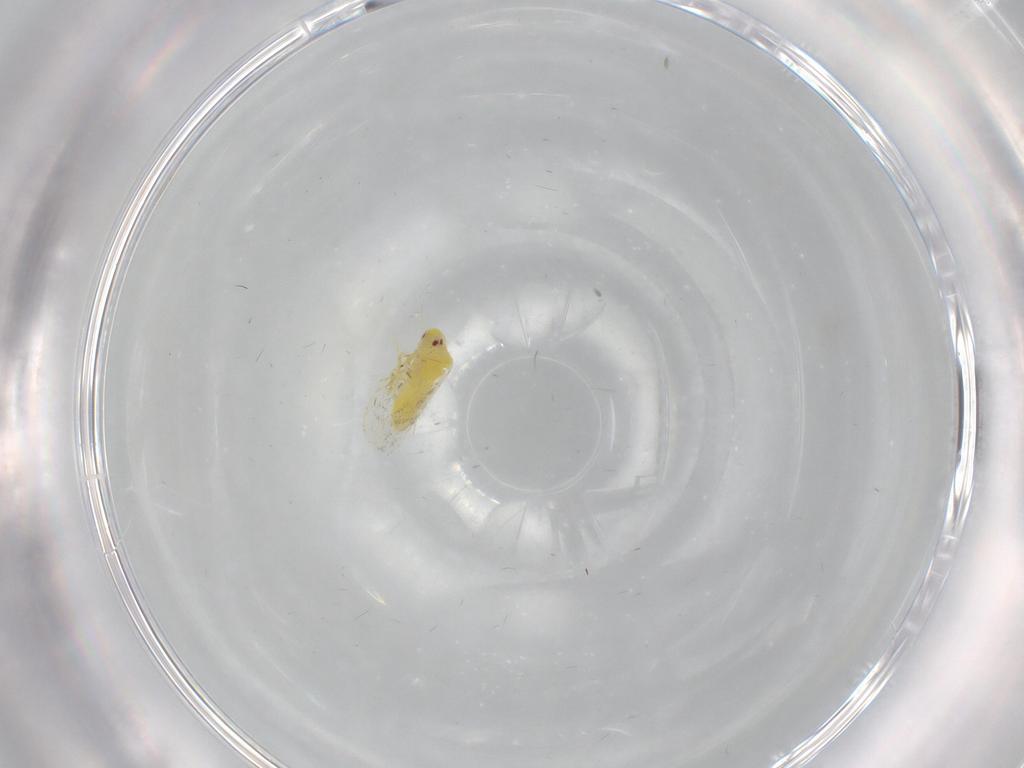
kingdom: Animalia
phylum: Arthropoda
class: Insecta
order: Hemiptera
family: Aleyrodidae
